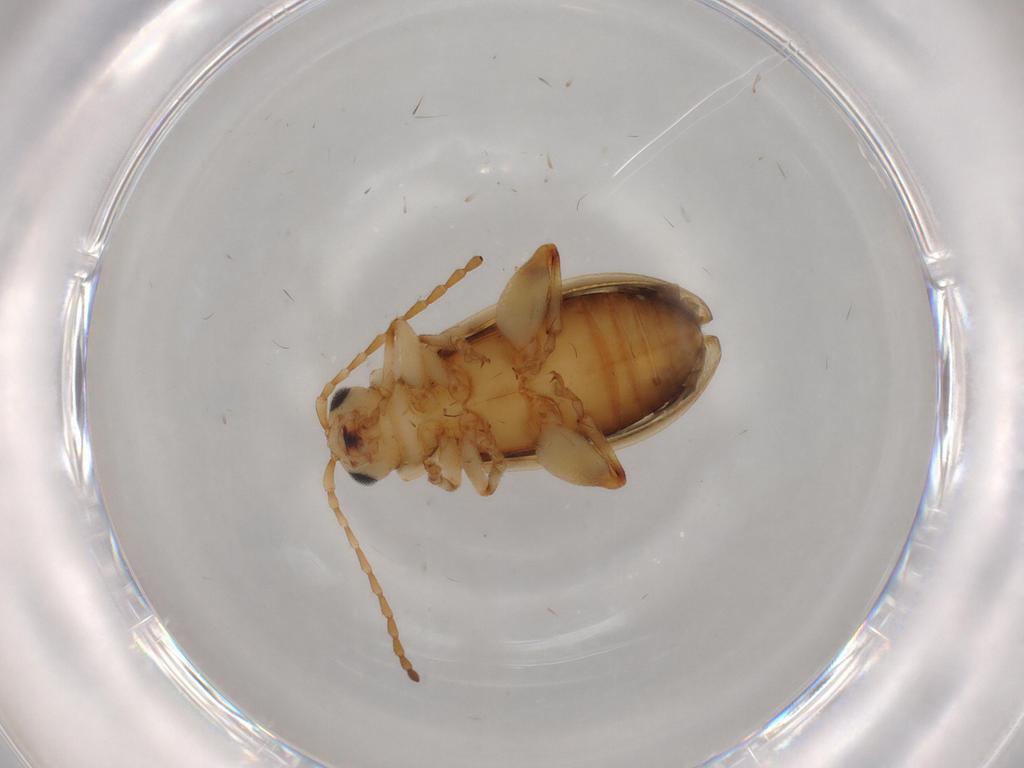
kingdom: Animalia
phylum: Arthropoda
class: Insecta
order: Coleoptera
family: Chrysomelidae
